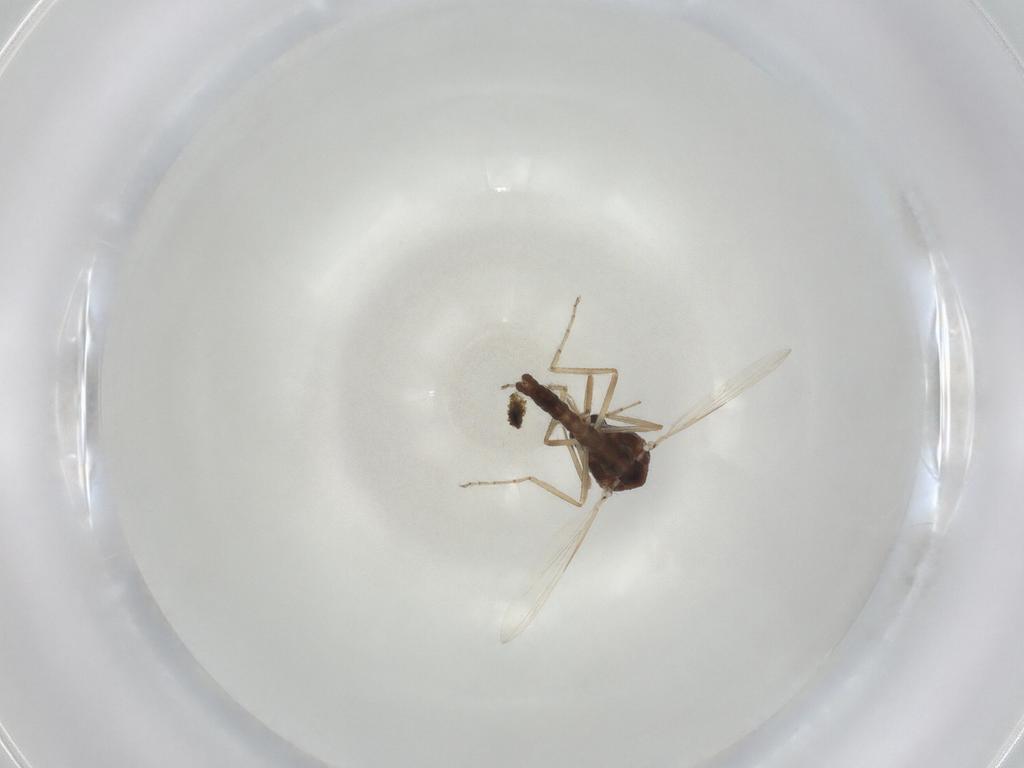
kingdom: Animalia
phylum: Arthropoda
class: Insecta
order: Diptera
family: Ceratopogonidae
